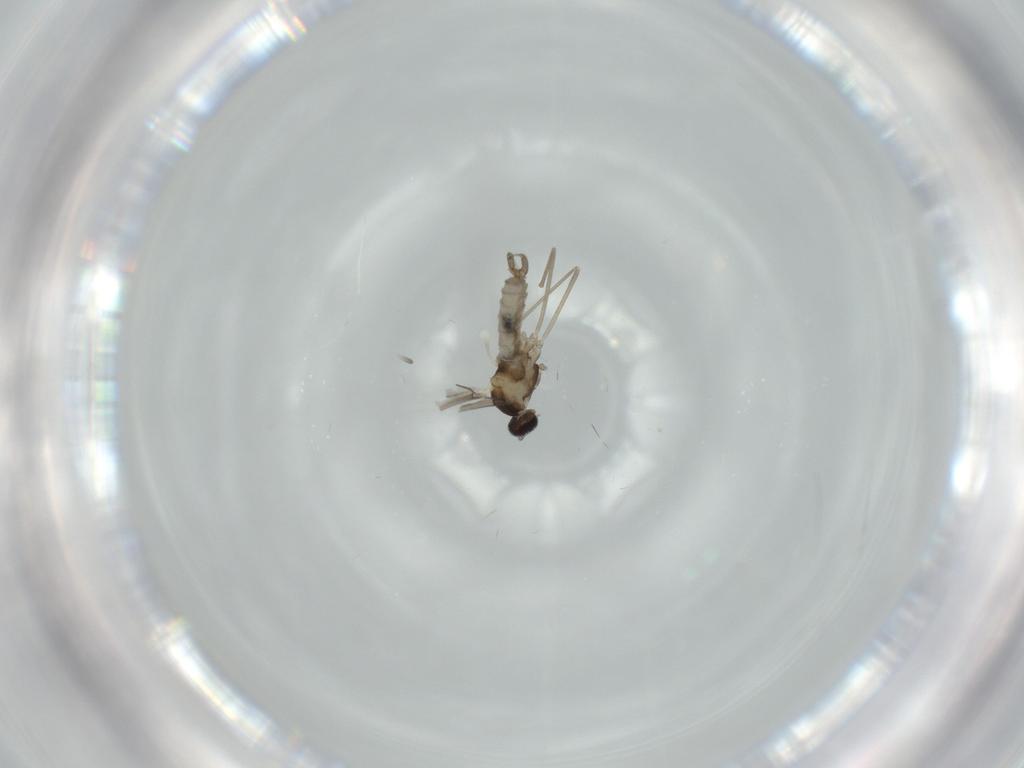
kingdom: Animalia
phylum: Arthropoda
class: Insecta
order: Diptera
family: Cecidomyiidae
